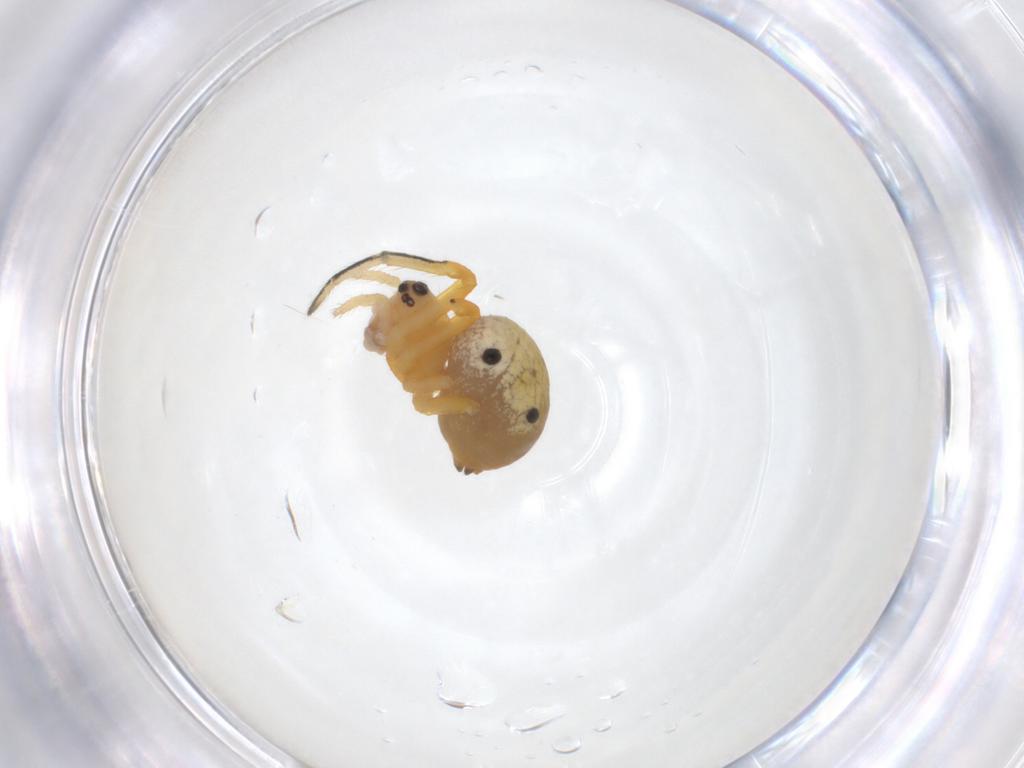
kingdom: Animalia
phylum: Arthropoda
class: Arachnida
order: Araneae
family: Araneidae
